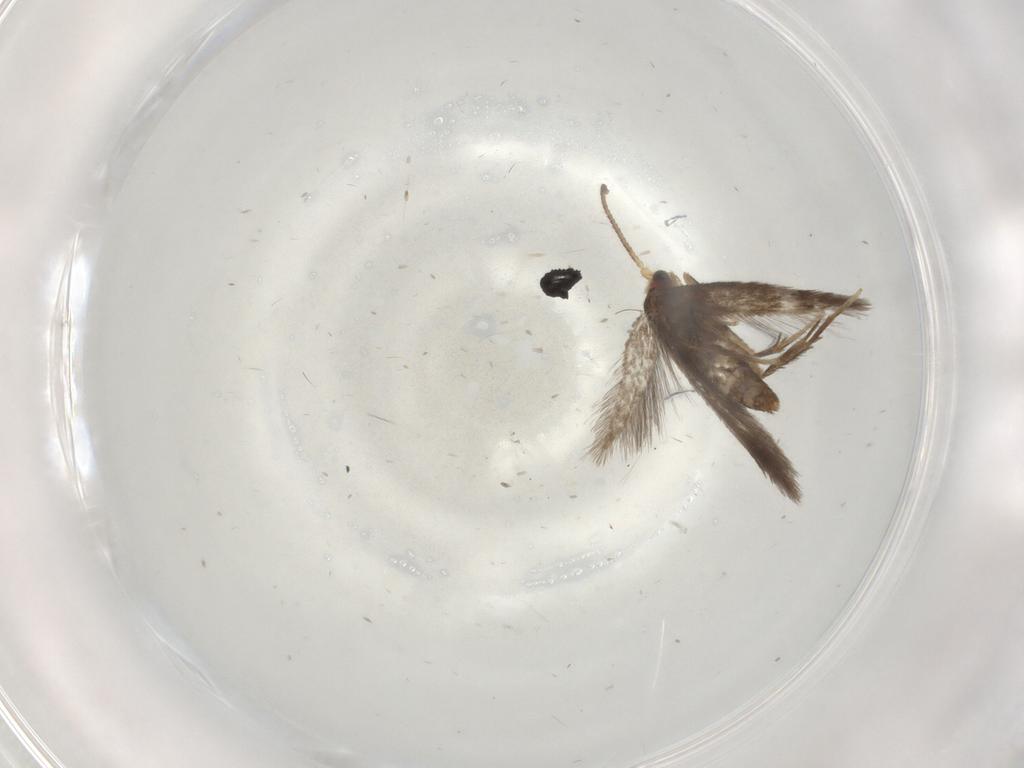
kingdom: Animalia
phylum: Arthropoda
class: Insecta
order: Lepidoptera
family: Nepticulidae
